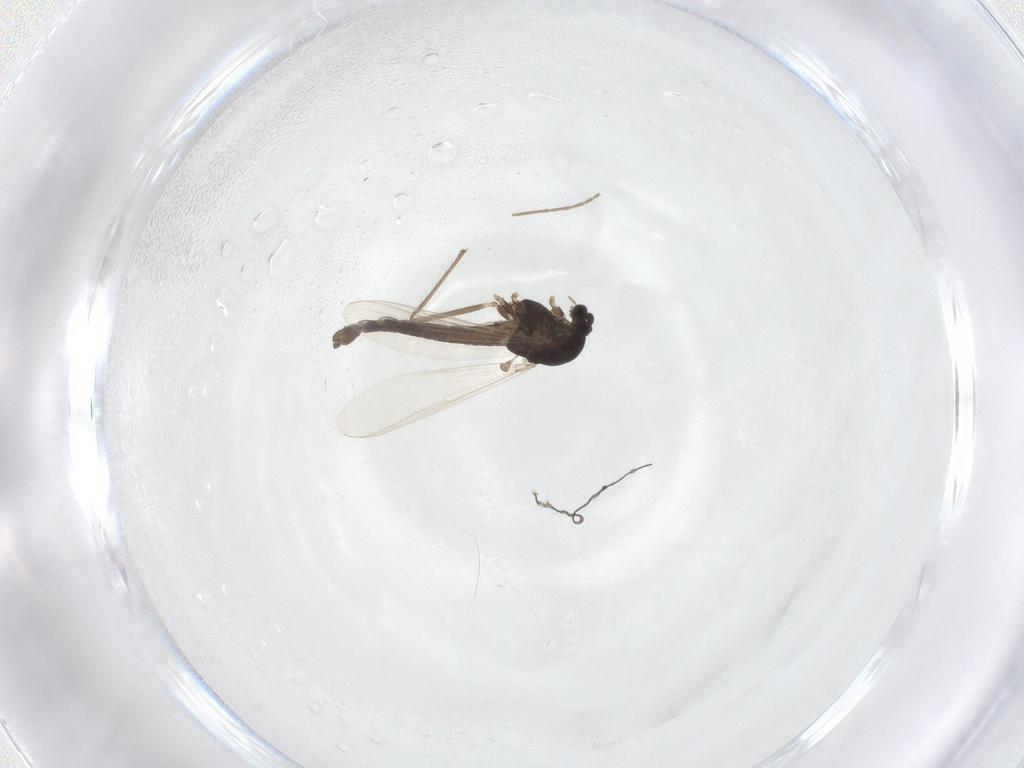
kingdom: Animalia
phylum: Arthropoda
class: Insecta
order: Diptera
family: Chironomidae
